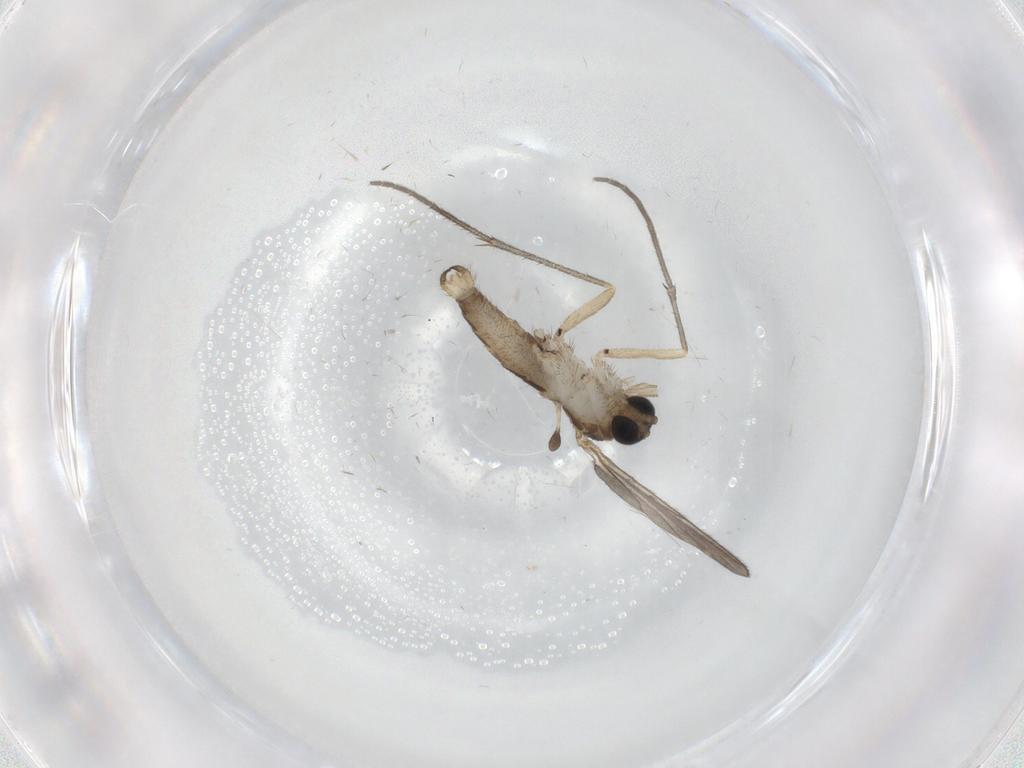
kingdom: Animalia
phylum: Arthropoda
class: Insecta
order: Diptera
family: Sciaridae
